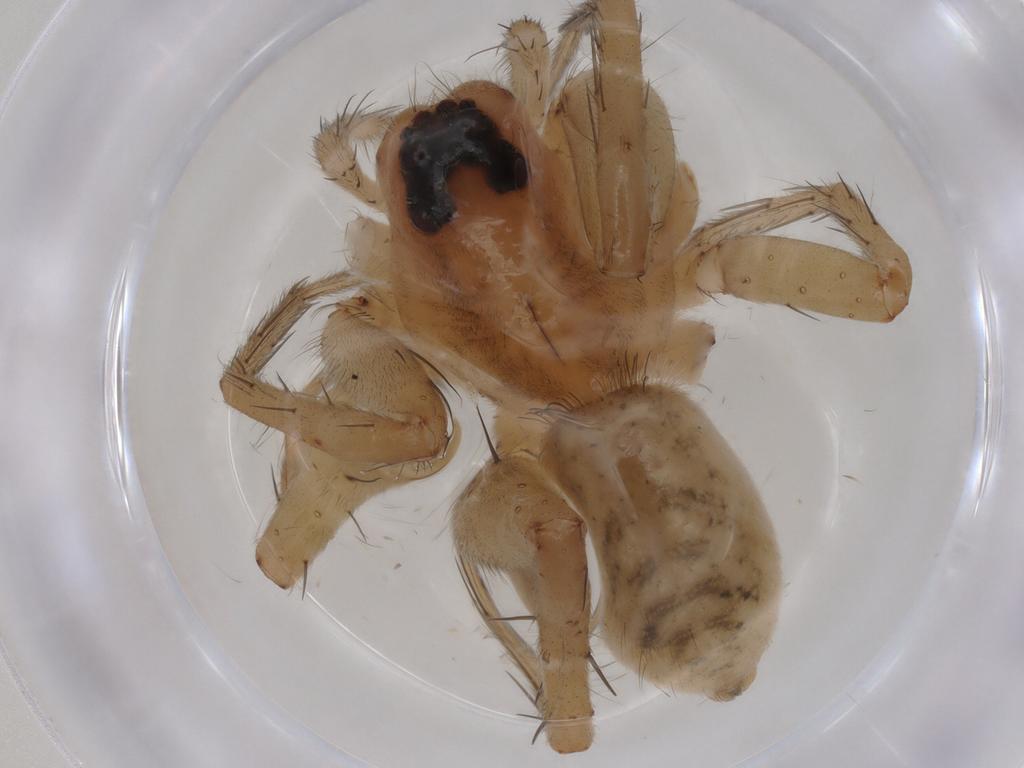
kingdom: Animalia
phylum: Arthropoda
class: Arachnida
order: Araneae
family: Lycosidae
